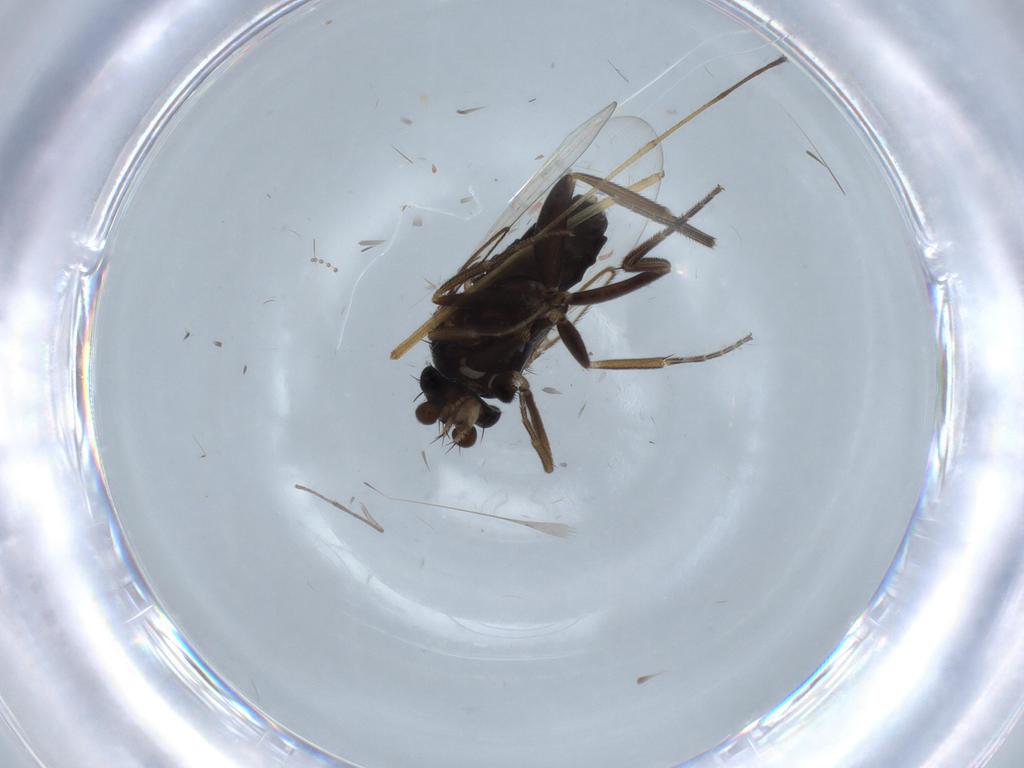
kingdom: Animalia
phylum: Arthropoda
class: Insecta
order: Diptera
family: Phoridae
